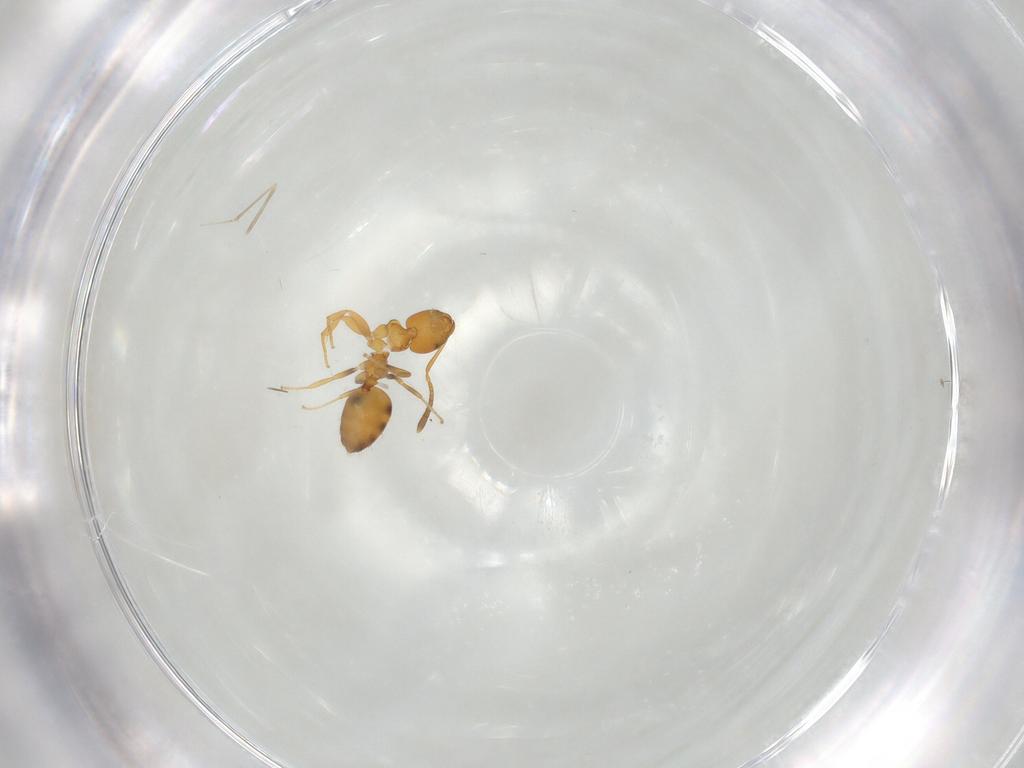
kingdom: Animalia
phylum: Arthropoda
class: Insecta
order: Hymenoptera
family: Formicidae
